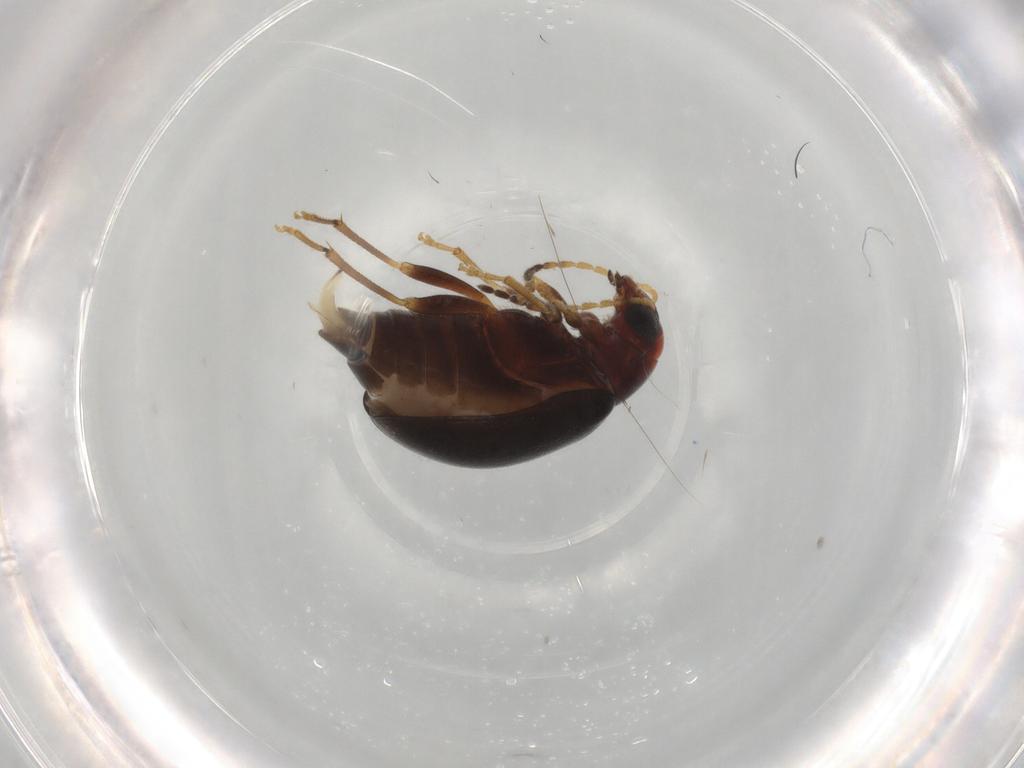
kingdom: Animalia
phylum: Arthropoda
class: Insecta
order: Coleoptera
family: Chrysomelidae
